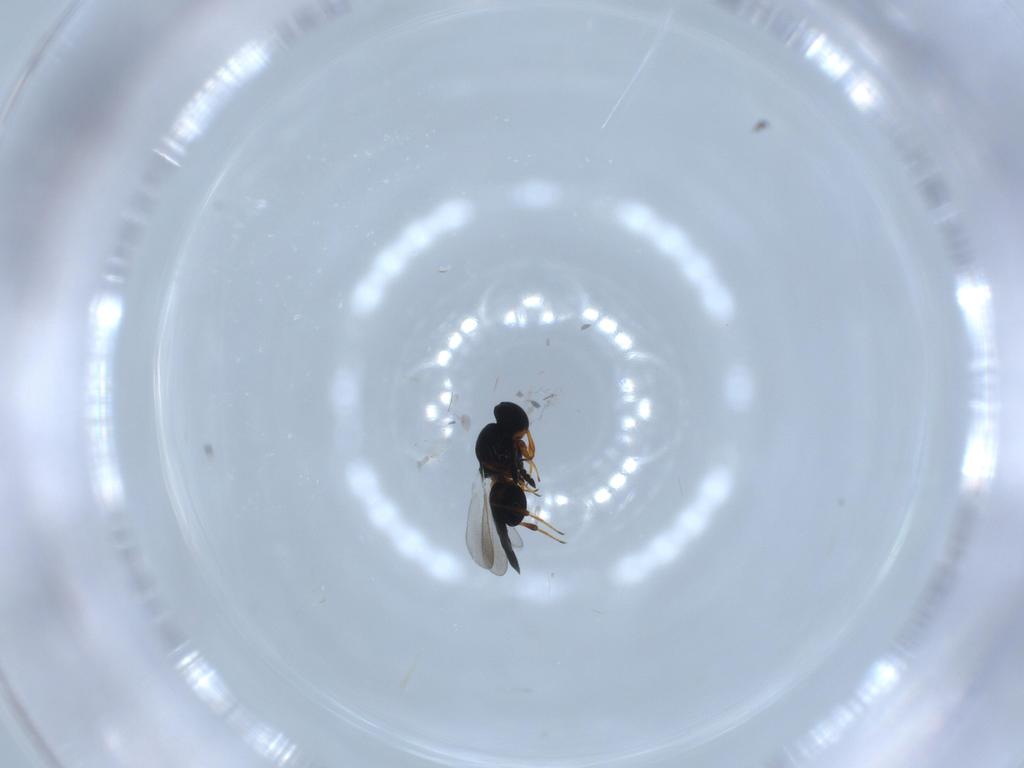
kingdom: Animalia
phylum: Arthropoda
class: Insecta
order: Hymenoptera
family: Platygastridae
